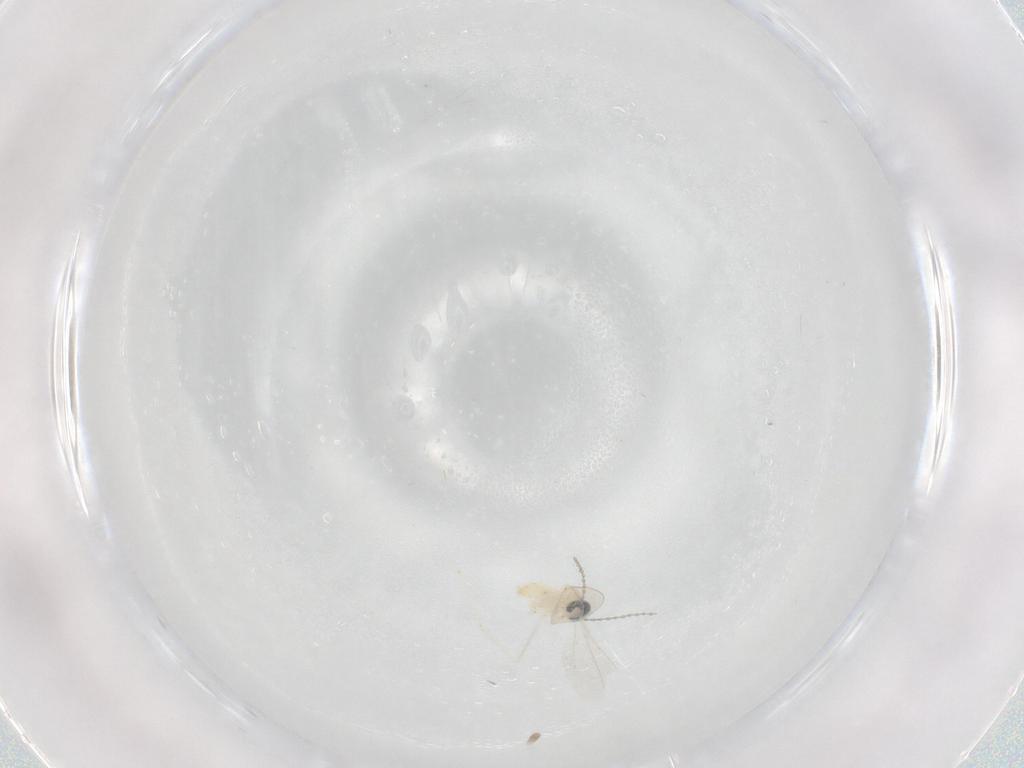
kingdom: Animalia
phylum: Arthropoda
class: Insecta
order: Diptera
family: Cecidomyiidae
